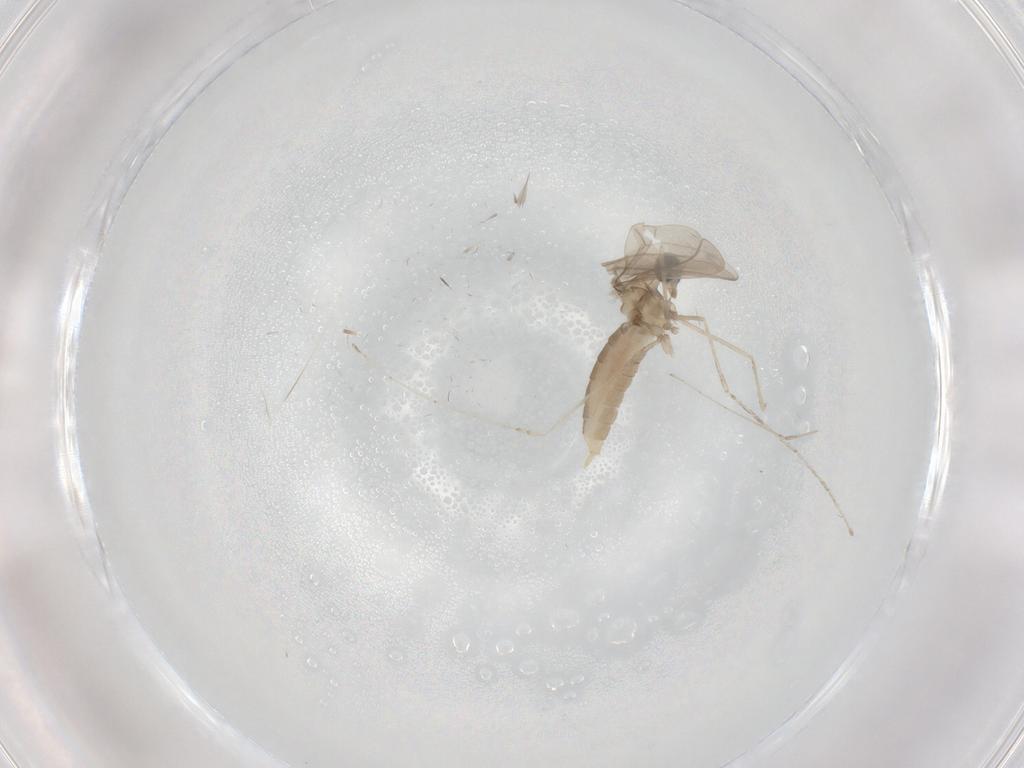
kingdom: Animalia
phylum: Arthropoda
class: Insecta
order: Diptera
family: Cecidomyiidae
